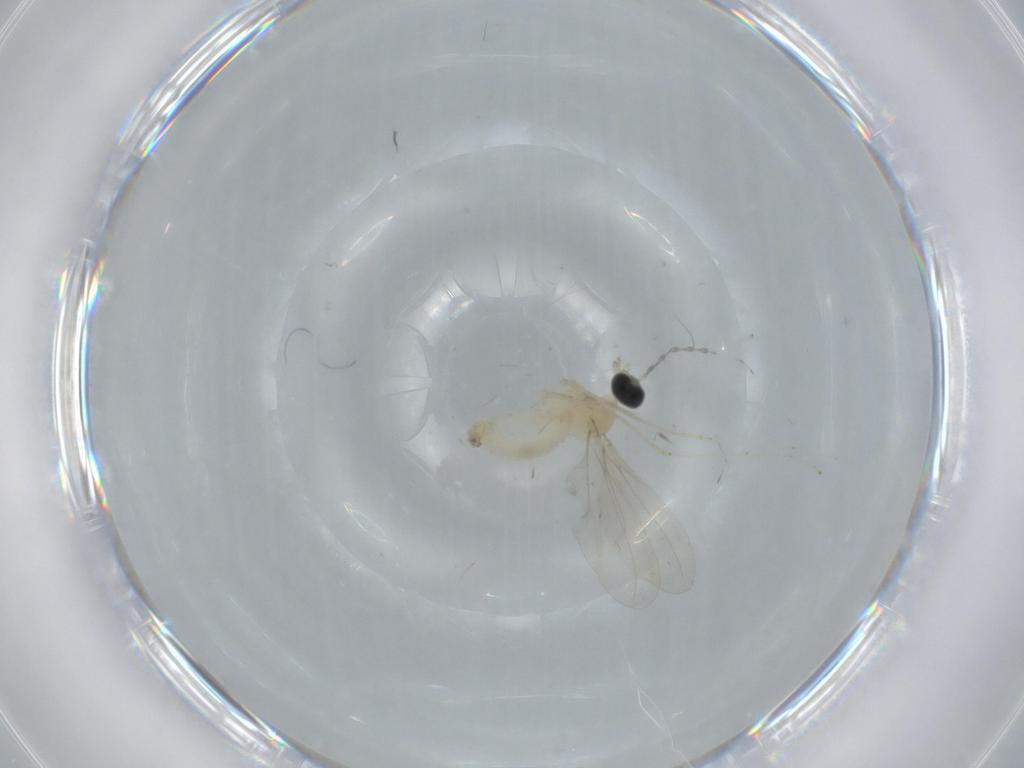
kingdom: Animalia
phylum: Arthropoda
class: Insecta
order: Diptera
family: Cecidomyiidae
